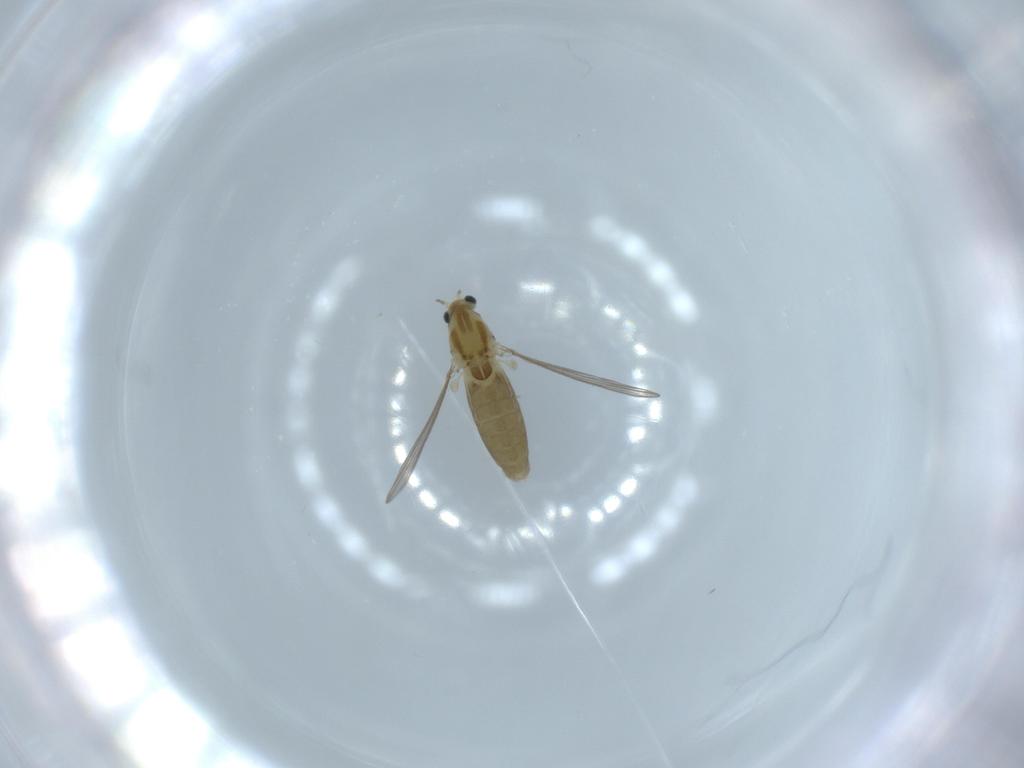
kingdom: Animalia
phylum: Arthropoda
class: Insecta
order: Diptera
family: Chironomidae
